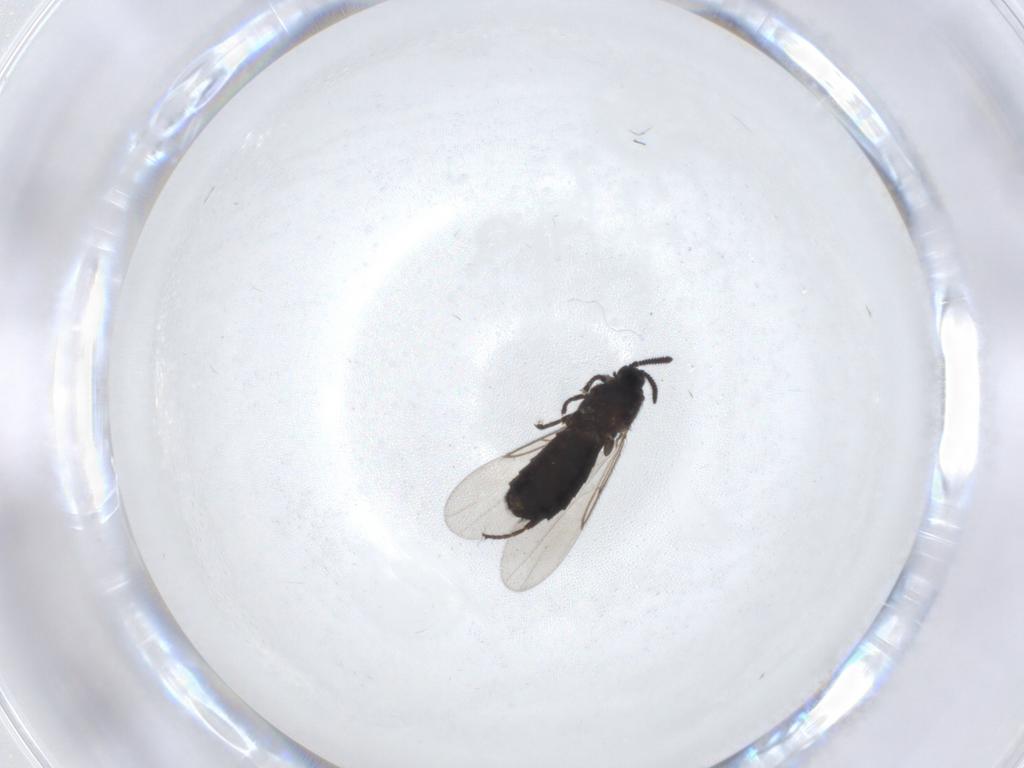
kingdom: Animalia
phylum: Arthropoda
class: Insecta
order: Diptera
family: Scatopsidae
